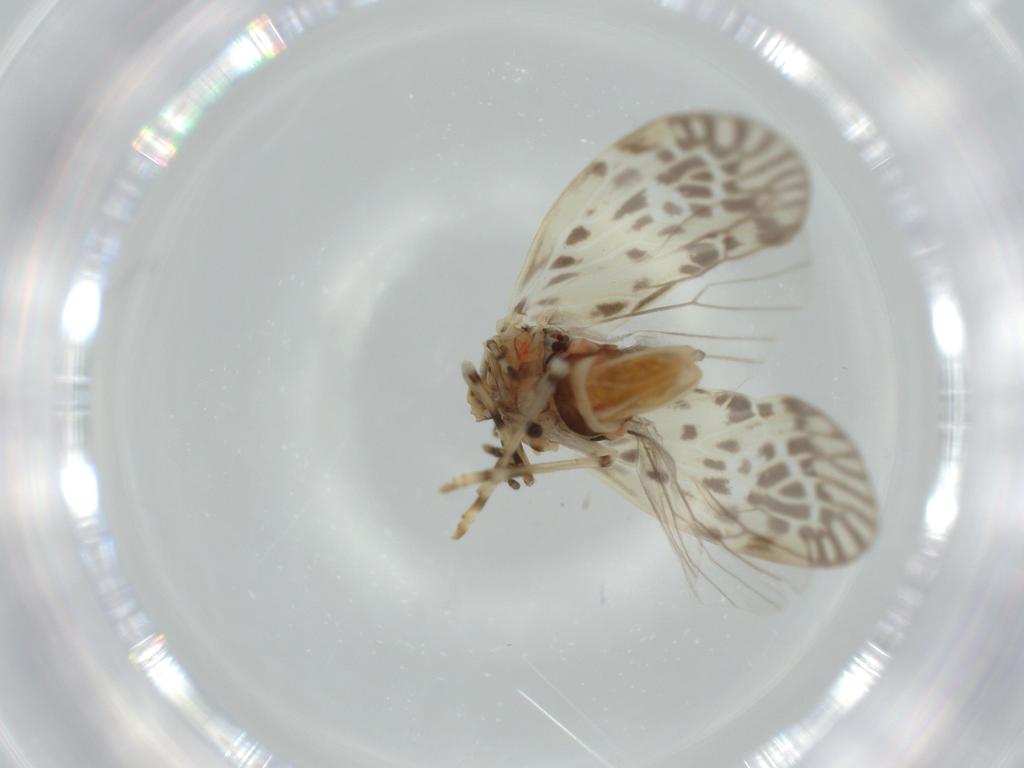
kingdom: Animalia
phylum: Arthropoda
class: Insecta
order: Hemiptera
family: Derbidae
